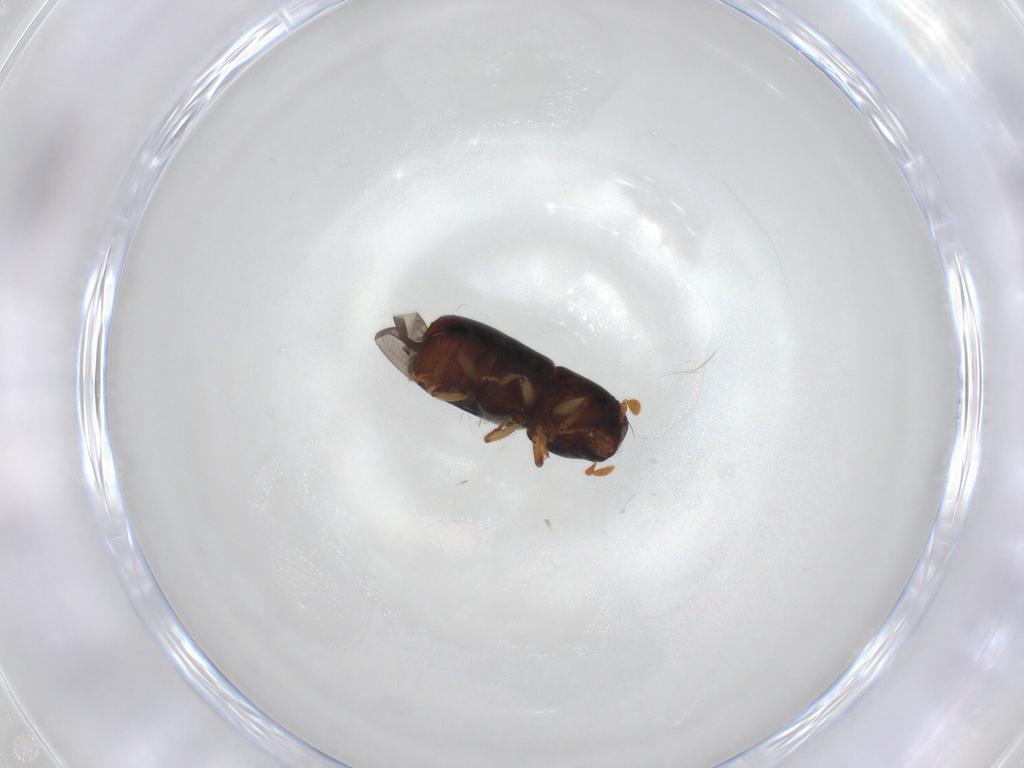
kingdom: Animalia
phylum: Arthropoda
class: Insecta
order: Coleoptera
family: Curculionidae
